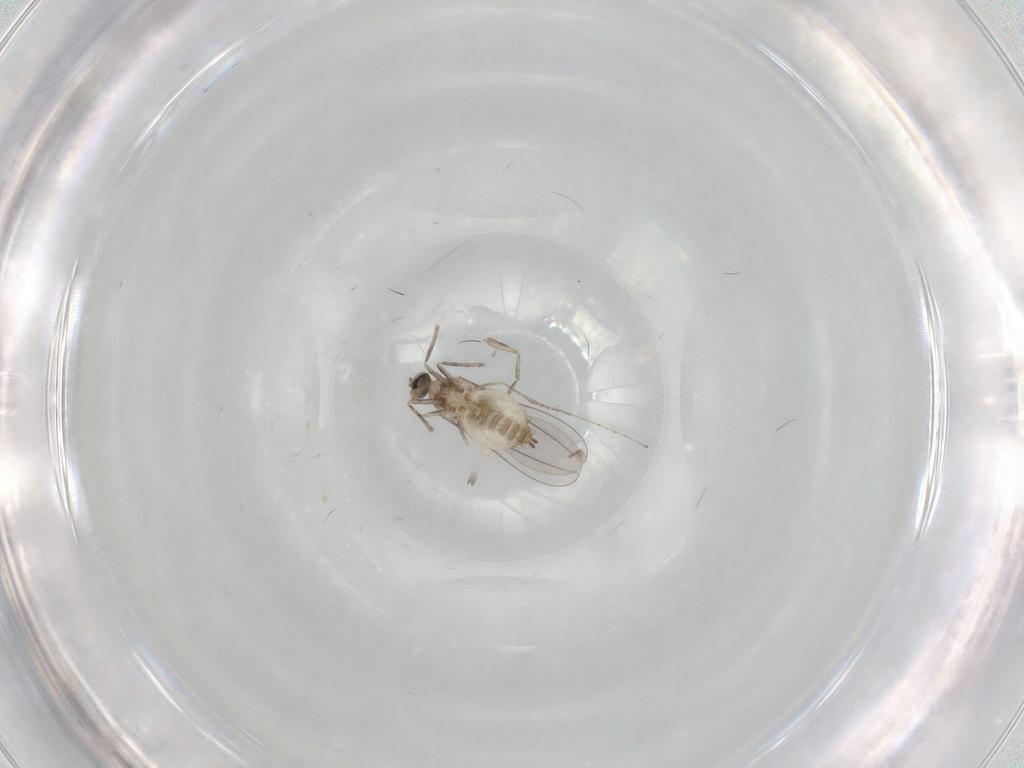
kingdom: Animalia
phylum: Arthropoda
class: Insecta
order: Diptera
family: Cecidomyiidae
